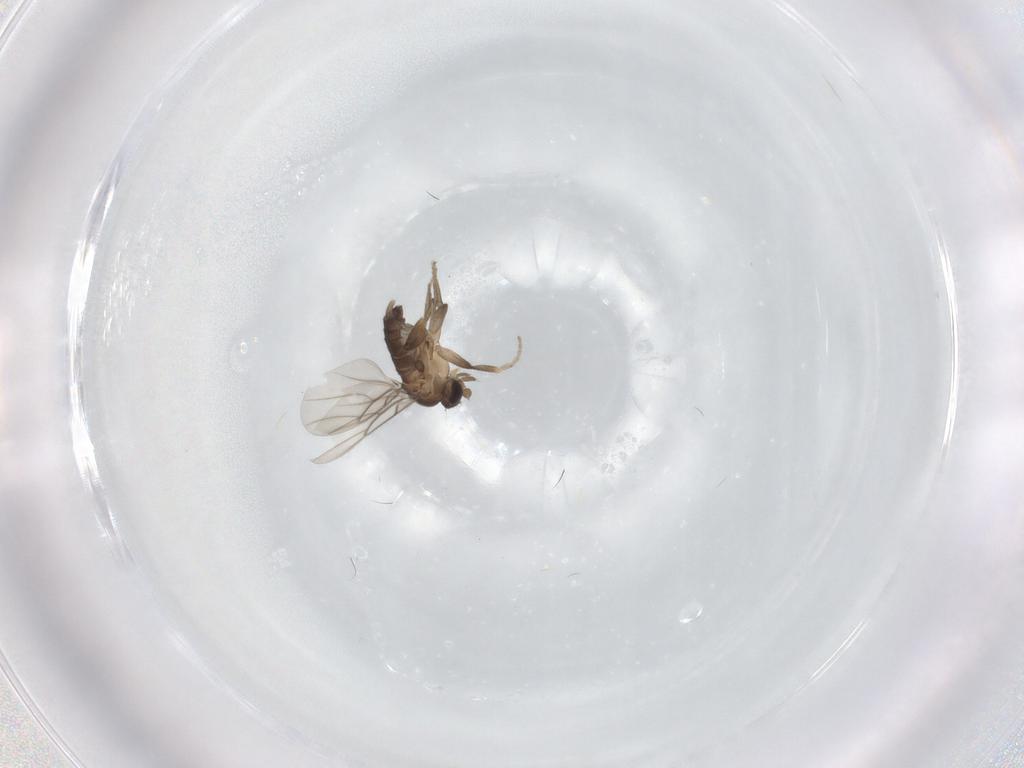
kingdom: Animalia
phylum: Arthropoda
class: Insecta
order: Diptera
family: Phoridae
